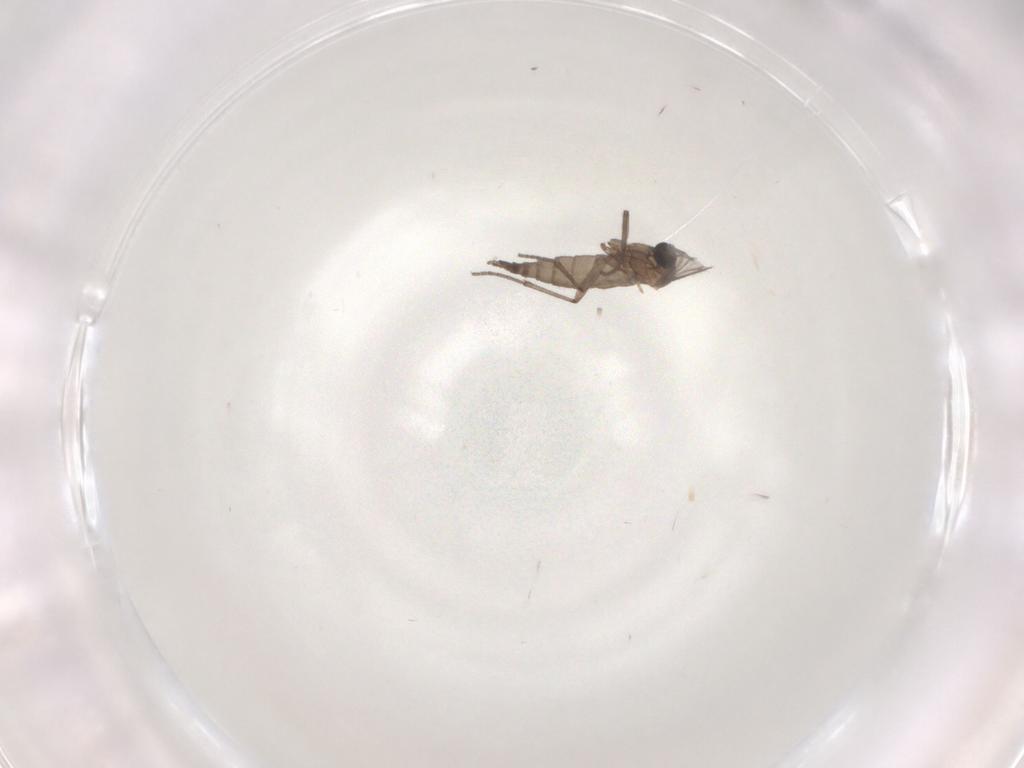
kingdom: Animalia
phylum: Arthropoda
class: Insecta
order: Diptera
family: Sciaridae
